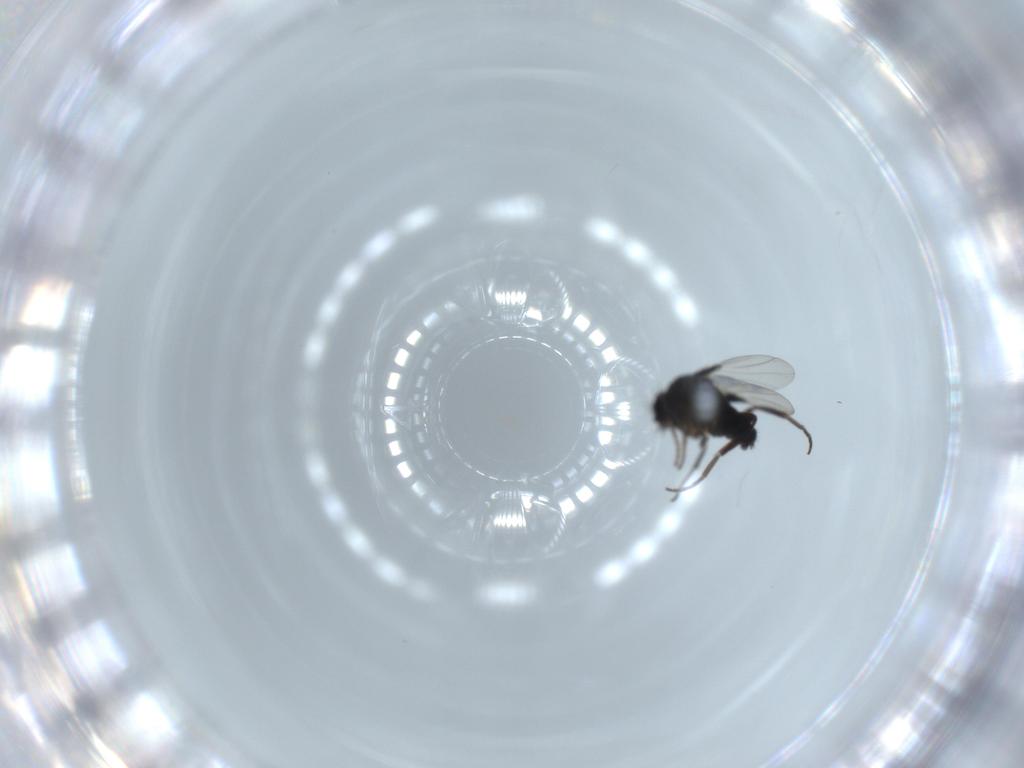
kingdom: Animalia
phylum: Arthropoda
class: Insecta
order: Diptera
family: Phoridae
